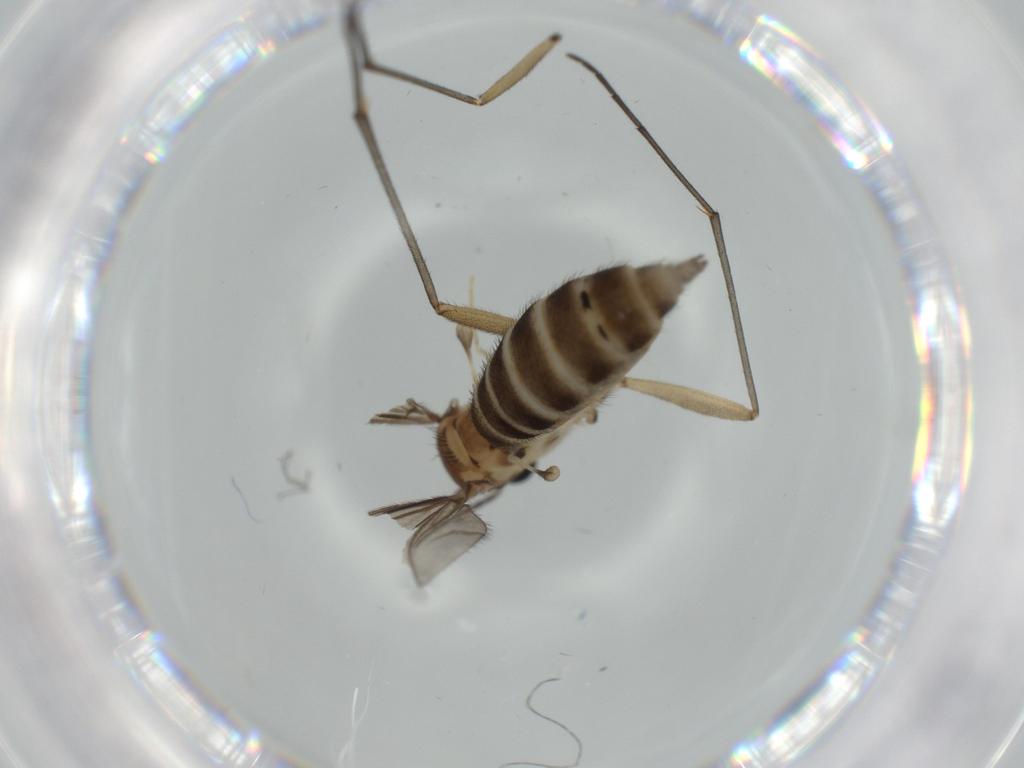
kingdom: Animalia
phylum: Arthropoda
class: Insecta
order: Diptera
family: Sciaridae
